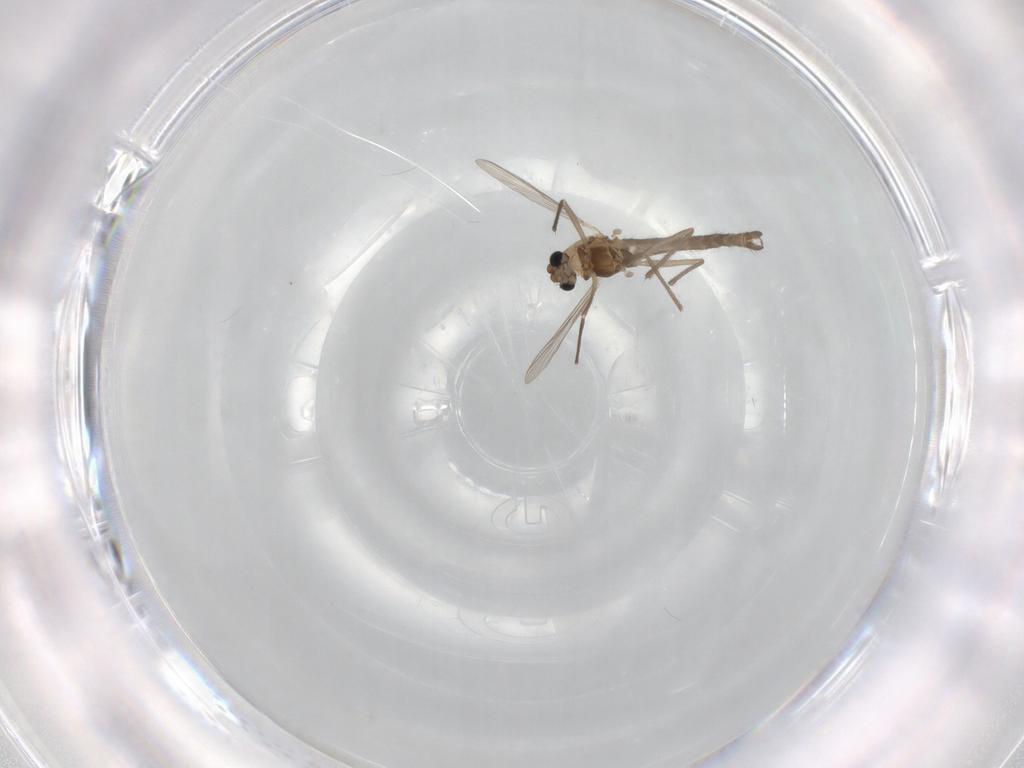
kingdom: Animalia
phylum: Arthropoda
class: Insecta
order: Diptera
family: Chironomidae
